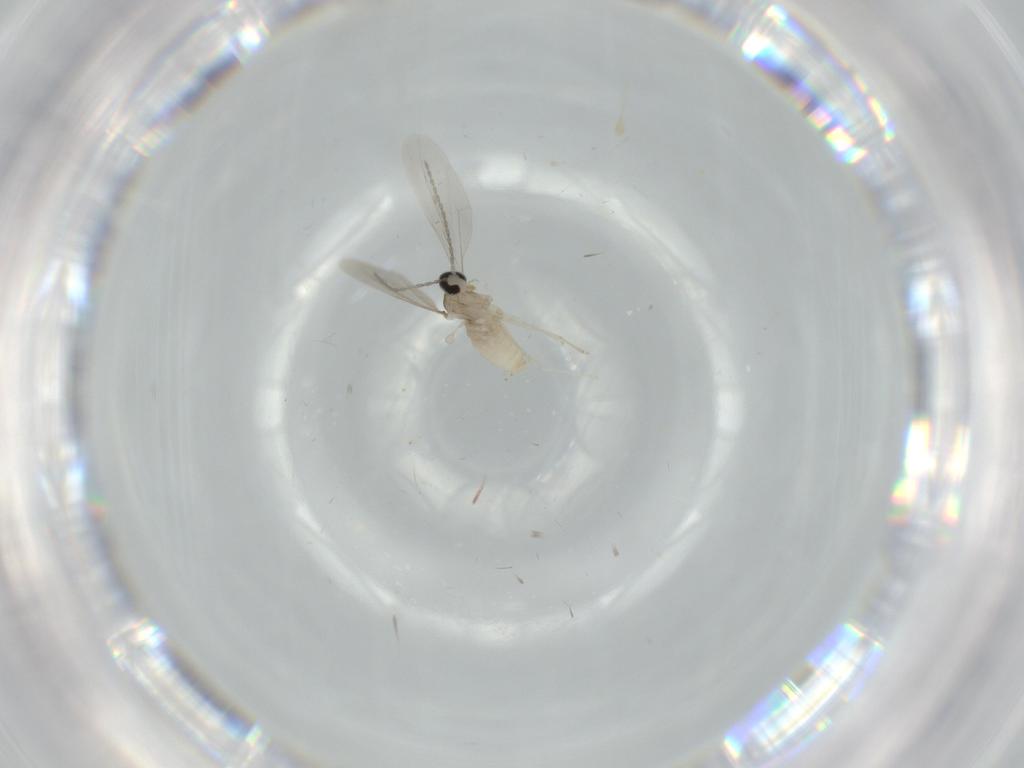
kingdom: Animalia
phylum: Arthropoda
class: Insecta
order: Diptera
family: Cecidomyiidae
